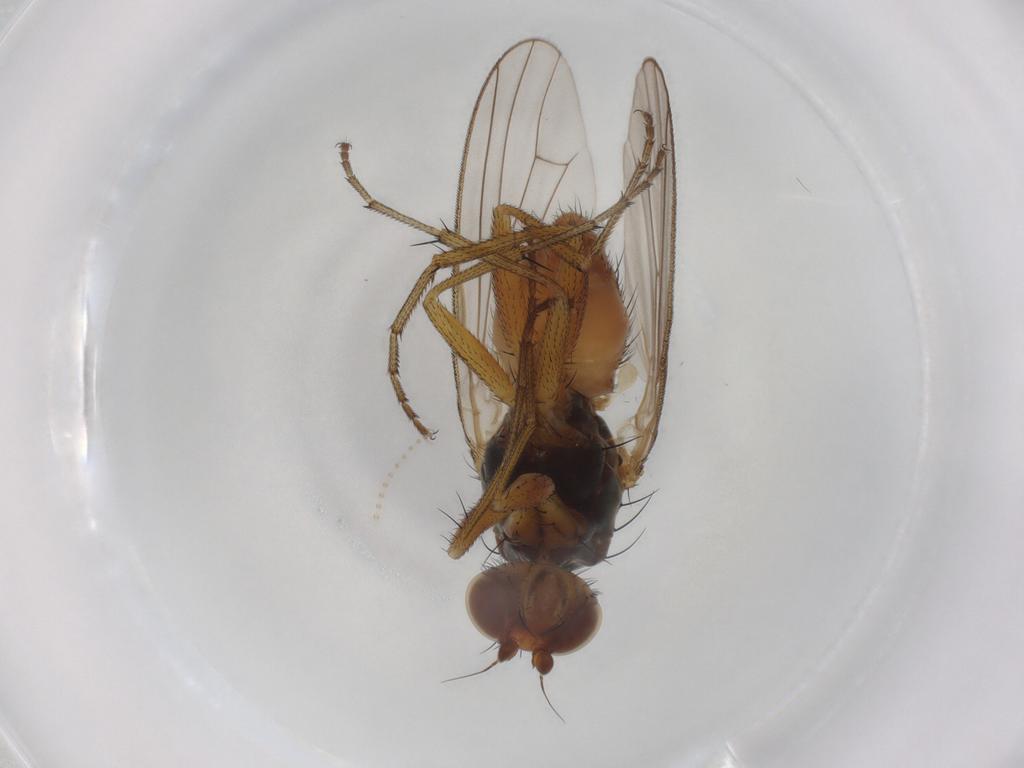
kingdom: Animalia
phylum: Arthropoda
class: Insecta
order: Diptera
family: Heleomyzidae
